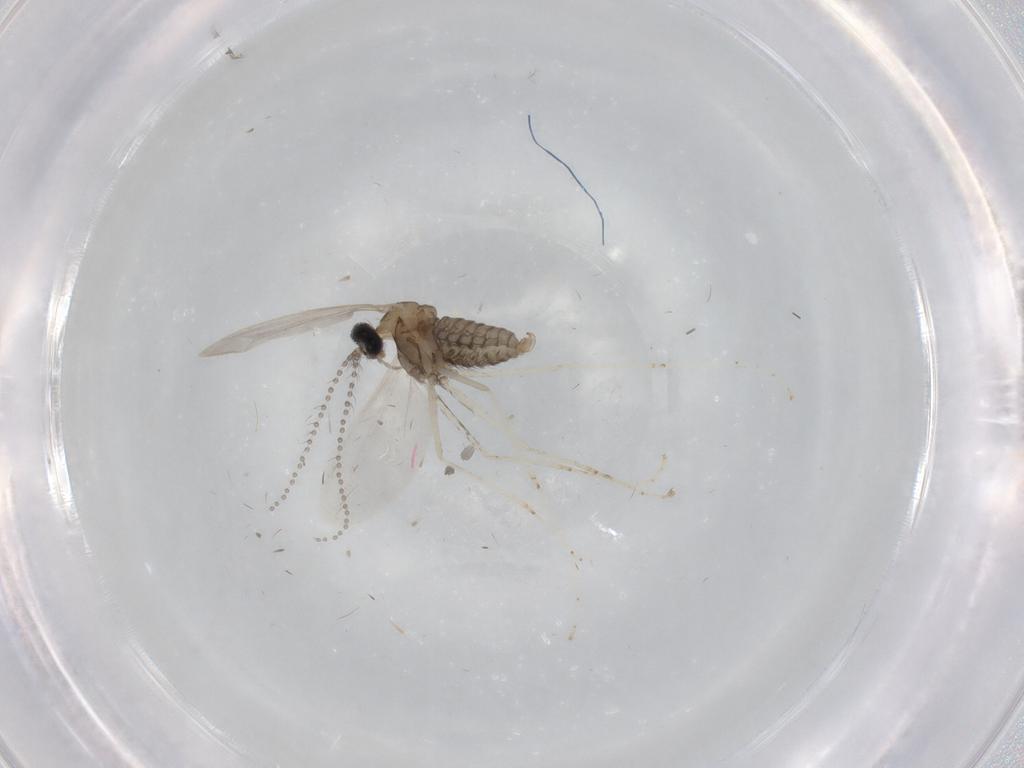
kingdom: Animalia
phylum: Arthropoda
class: Insecta
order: Diptera
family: Cecidomyiidae
